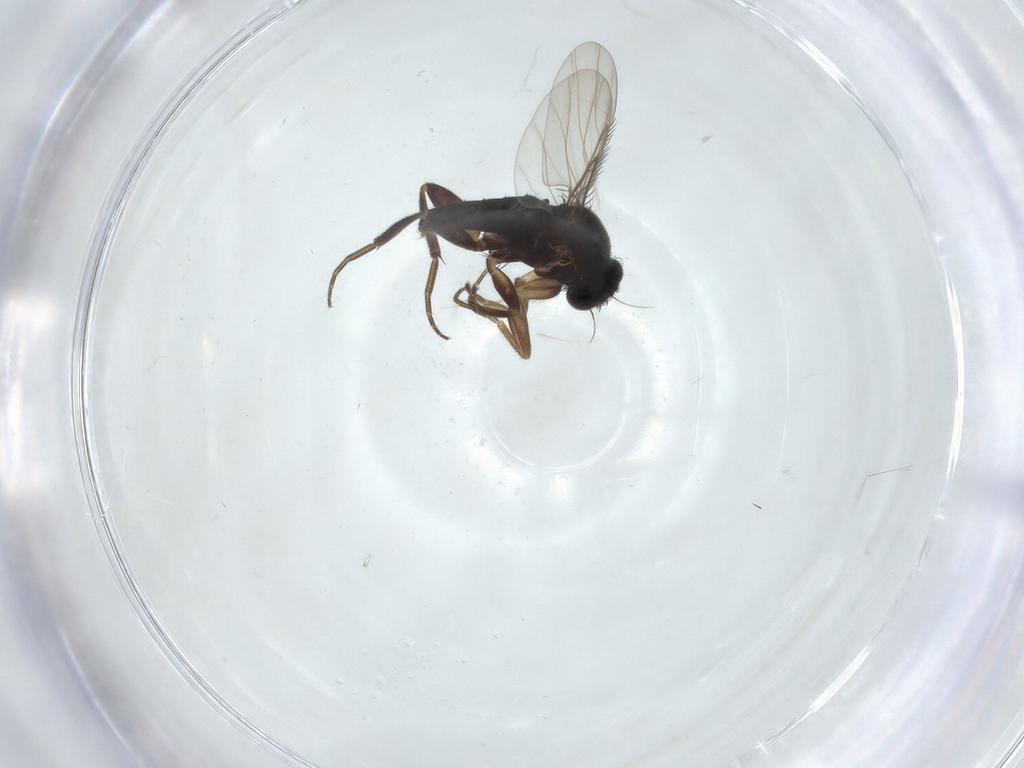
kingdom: Animalia
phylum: Arthropoda
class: Insecta
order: Diptera
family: Phoridae
